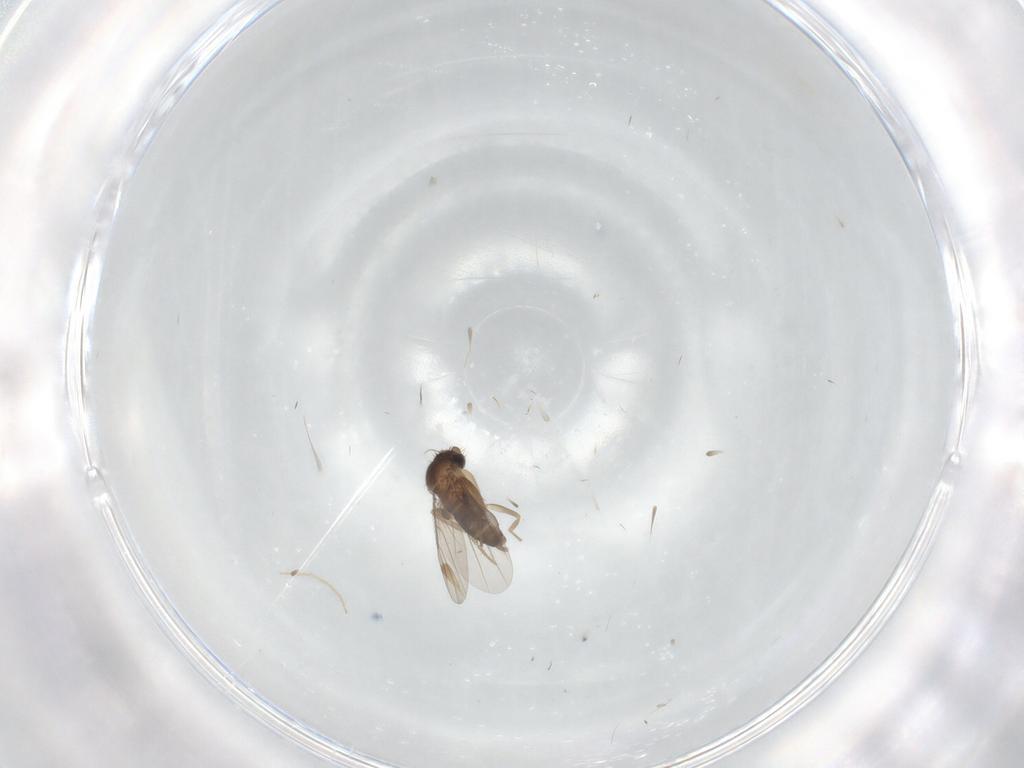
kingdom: Animalia
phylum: Arthropoda
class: Insecta
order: Diptera
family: Chironomidae
